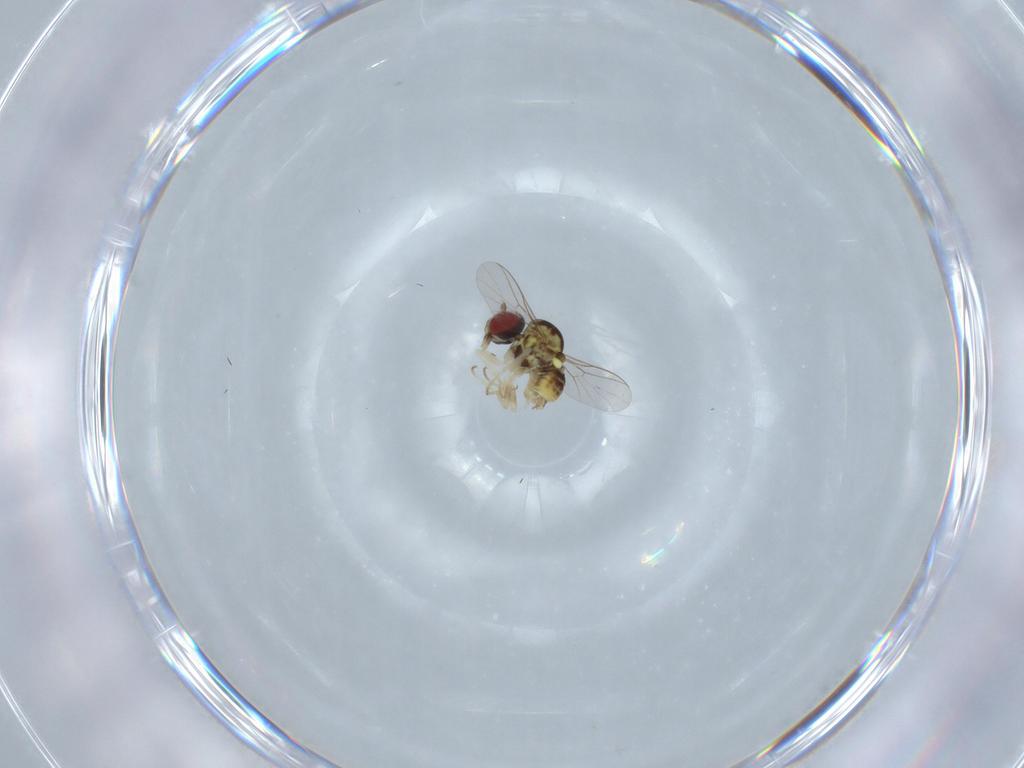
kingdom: Animalia
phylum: Arthropoda
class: Insecta
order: Diptera
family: Bombyliidae
